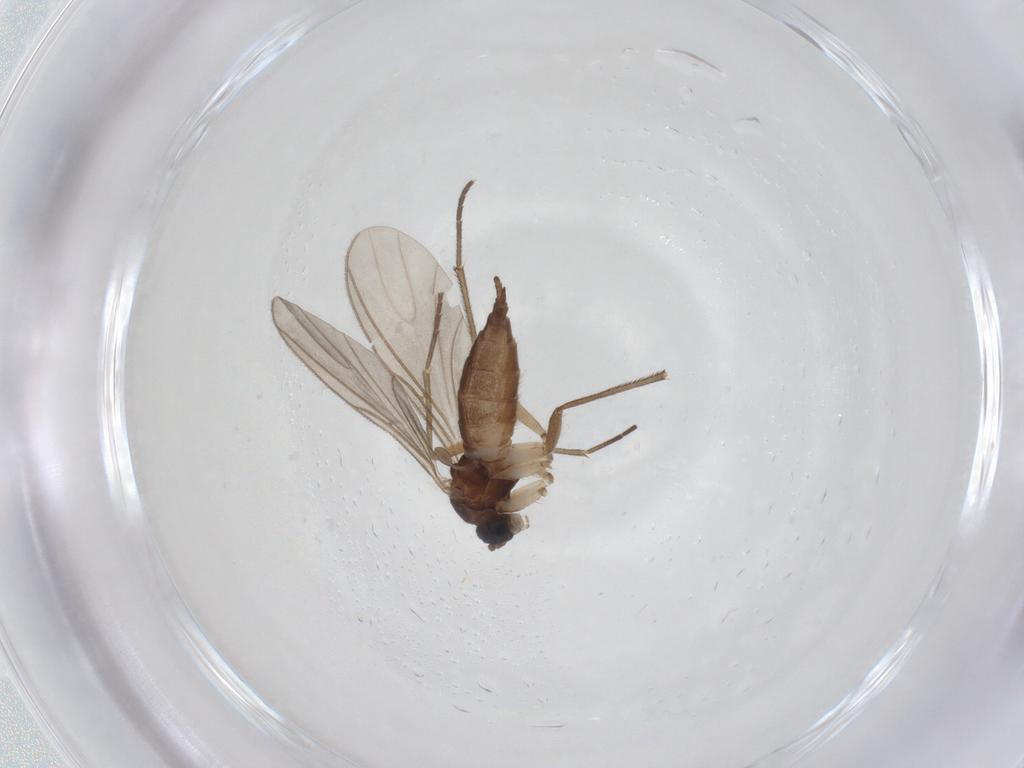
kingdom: Animalia
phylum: Arthropoda
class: Insecta
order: Diptera
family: Sciaridae
